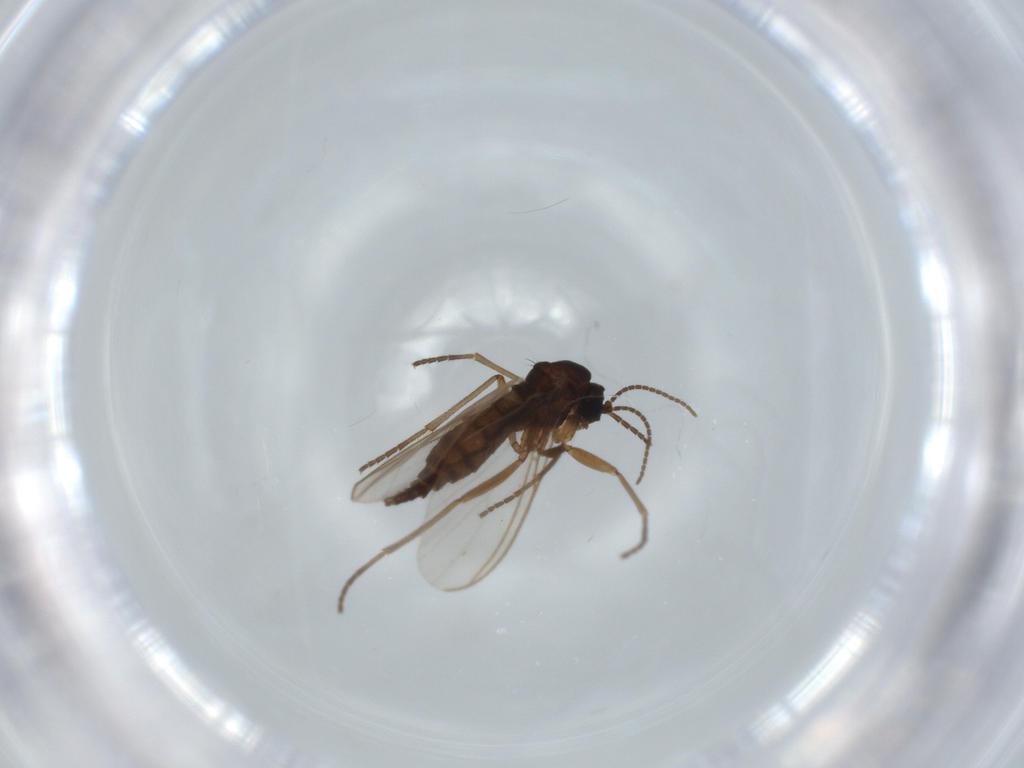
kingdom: Animalia
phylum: Arthropoda
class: Insecta
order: Diptera
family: Sciaridae
